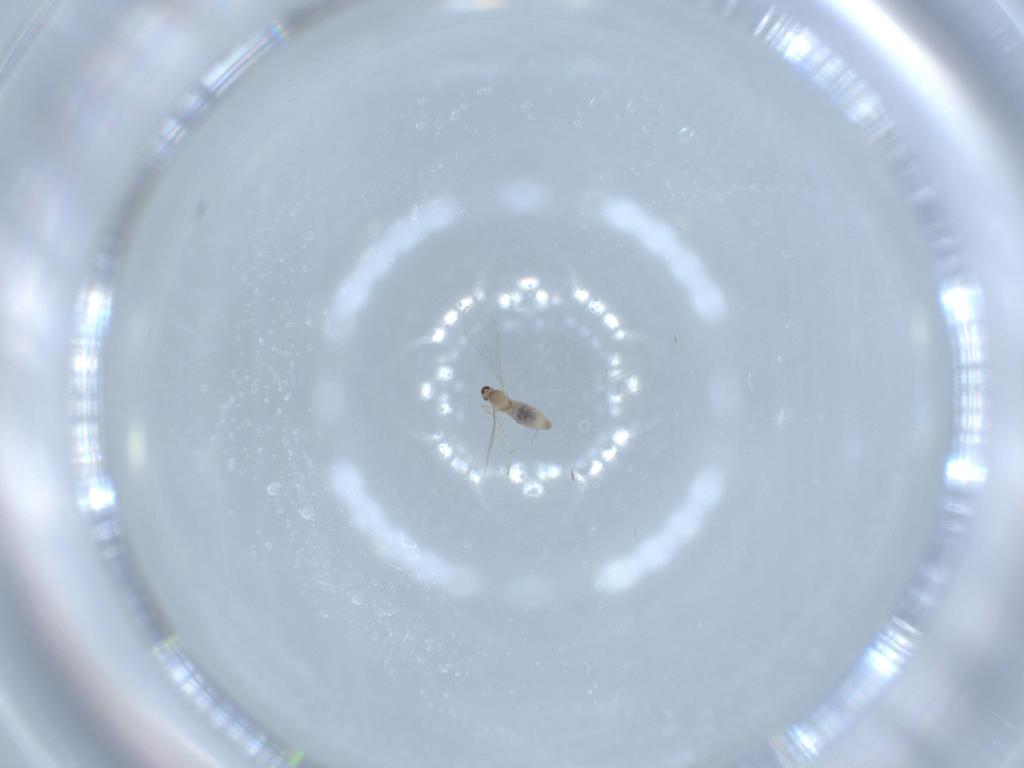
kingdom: Animalia
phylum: Arthropoda
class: Insecta
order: Diptera
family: Cecidomyiidae
